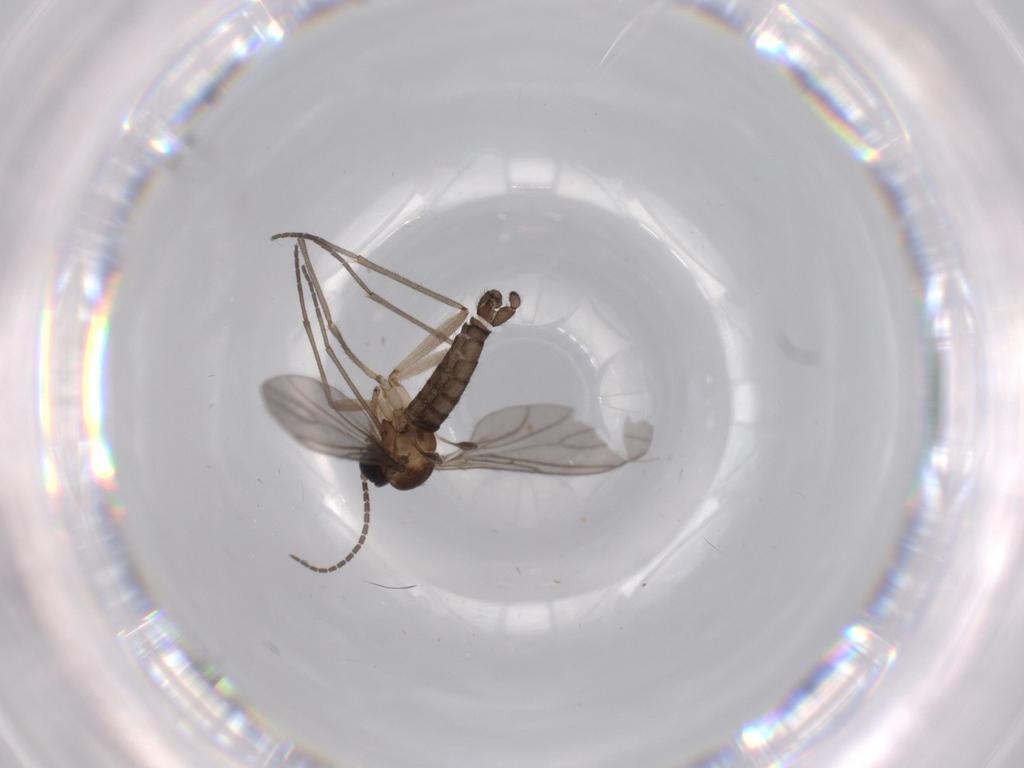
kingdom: Animalia
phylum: Arthropoda
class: Insecta
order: Diptera
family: Sciaridae
